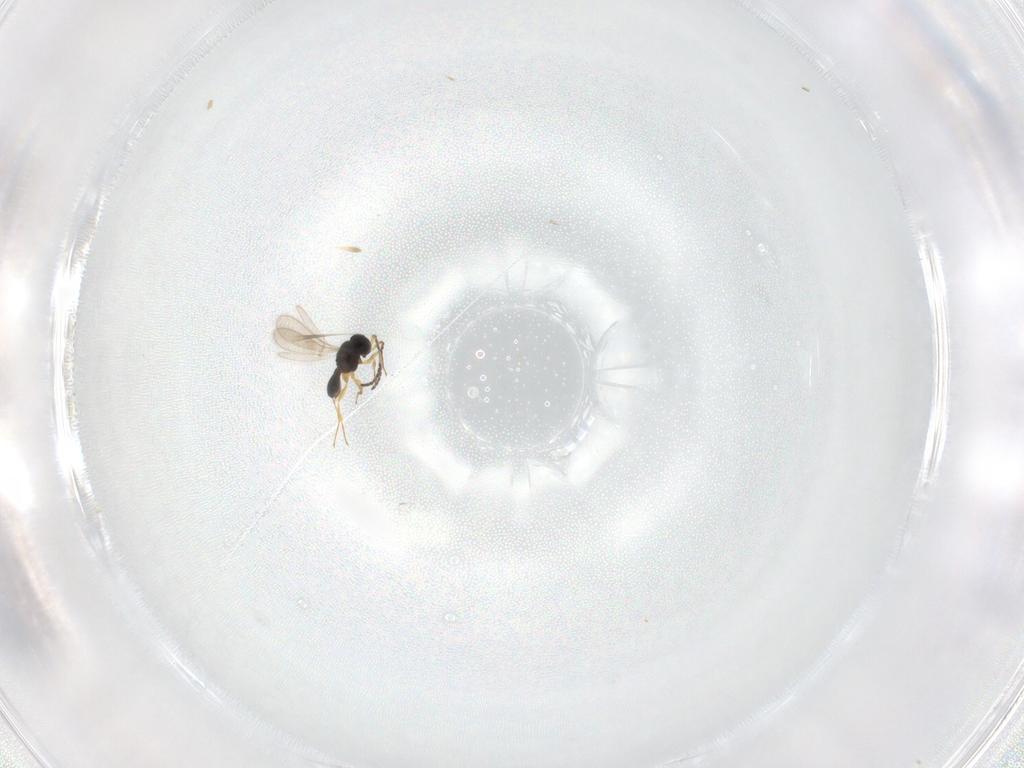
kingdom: Animalia
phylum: Arthropoda
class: Insecta
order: Hymenoptera
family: Scelionidae
